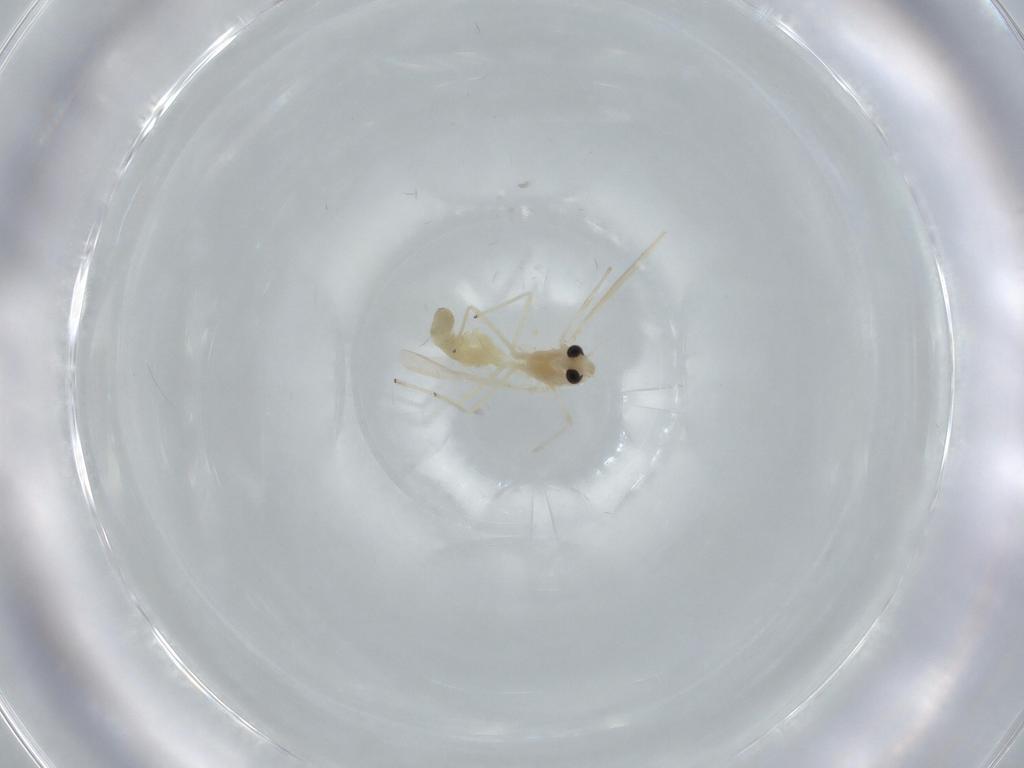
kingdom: Animalia
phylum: Arthropoda
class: Insecta
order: Diptera
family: Chironomidae
